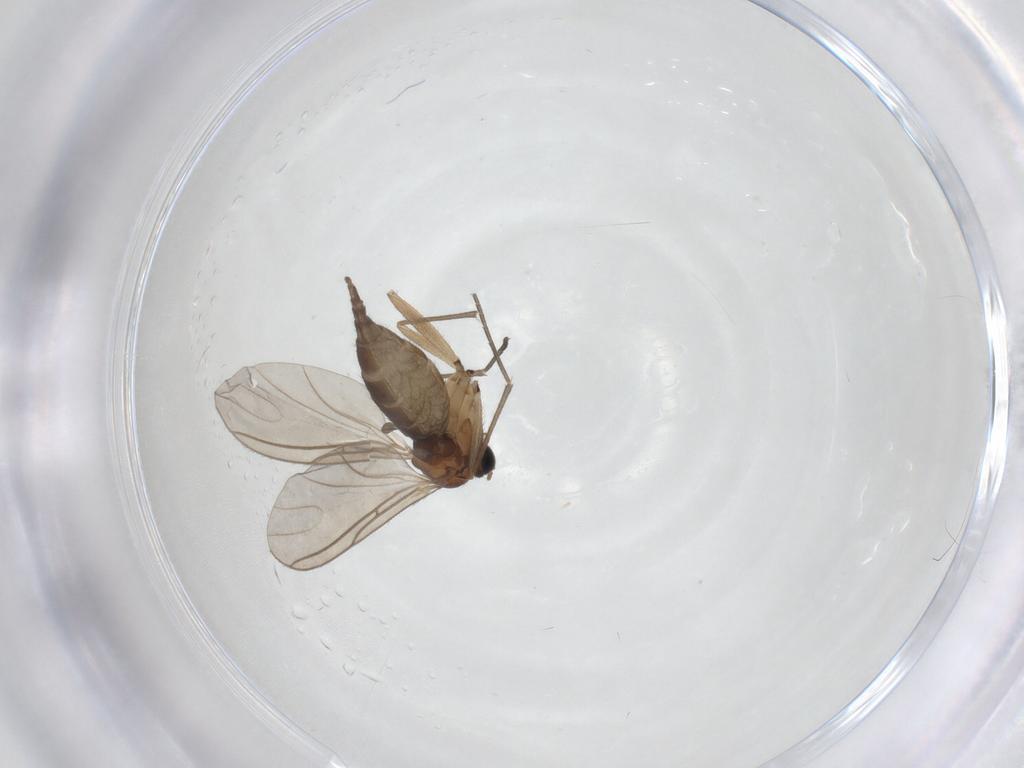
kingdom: Animalia
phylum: Arthropoda
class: Insecta
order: Diptera
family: Sciaridae
